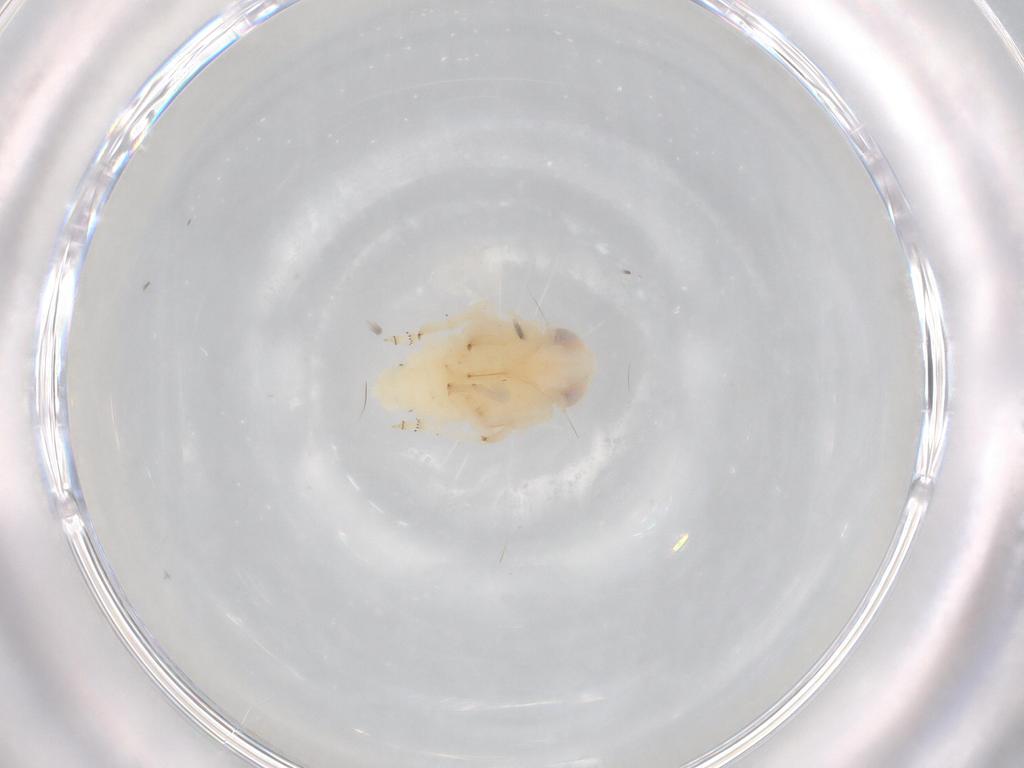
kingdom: Animalia
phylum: Arthropoda
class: Insecta
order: Hemiptera
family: Nogodinidae
